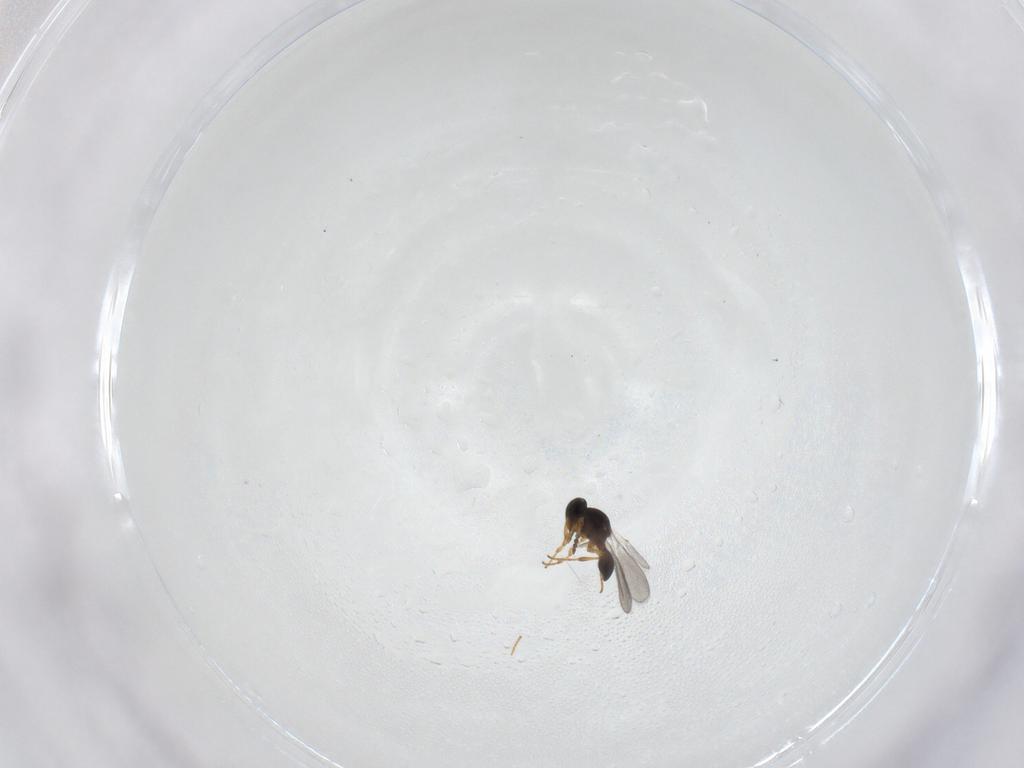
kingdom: Animalia
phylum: Arthropoda
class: Insecta
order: Hymenoptera
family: Platygastridae
